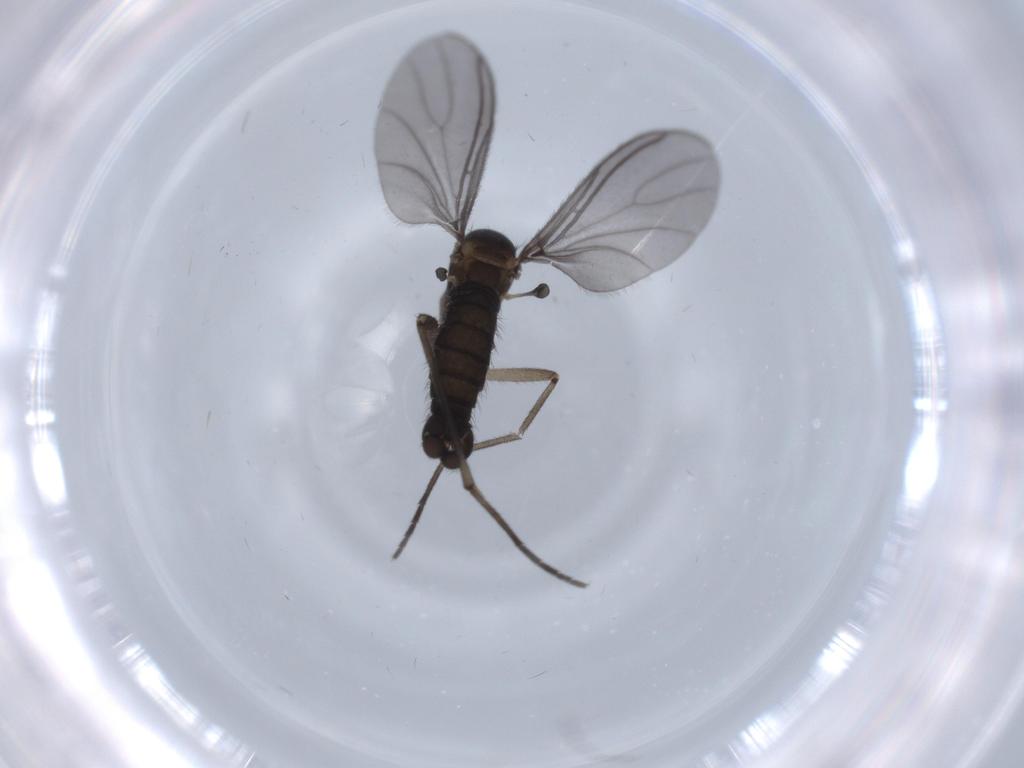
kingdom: Animalia
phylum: Arthropoda
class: Insecta
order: Diptera
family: Sciaridae
